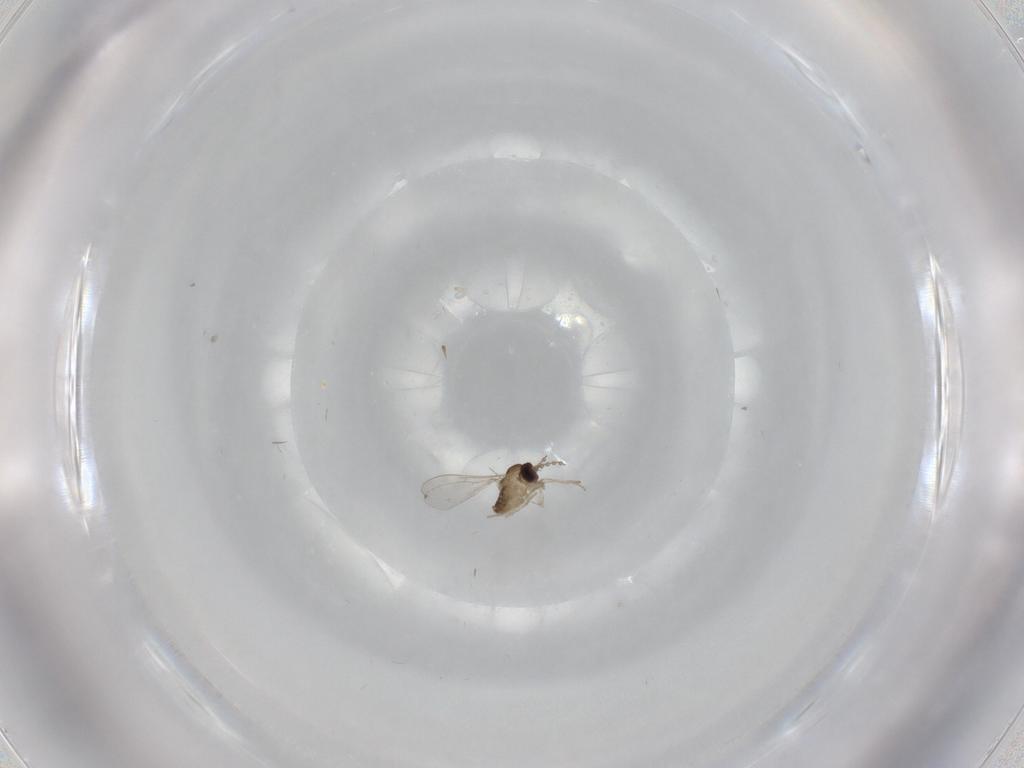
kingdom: Animalia
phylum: Arthropoda
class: Insecta
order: Diptera
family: Cecidomyiidae
